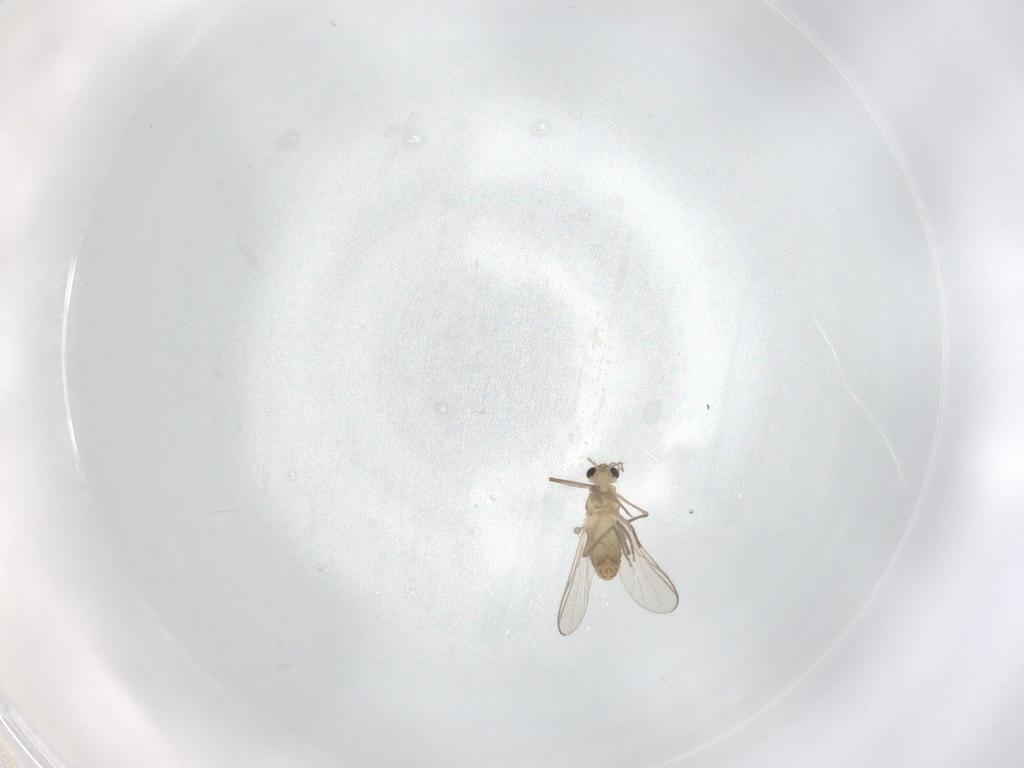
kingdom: Animalia
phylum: Arthropoda
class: Insecta
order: Diptera
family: Chironomidae
